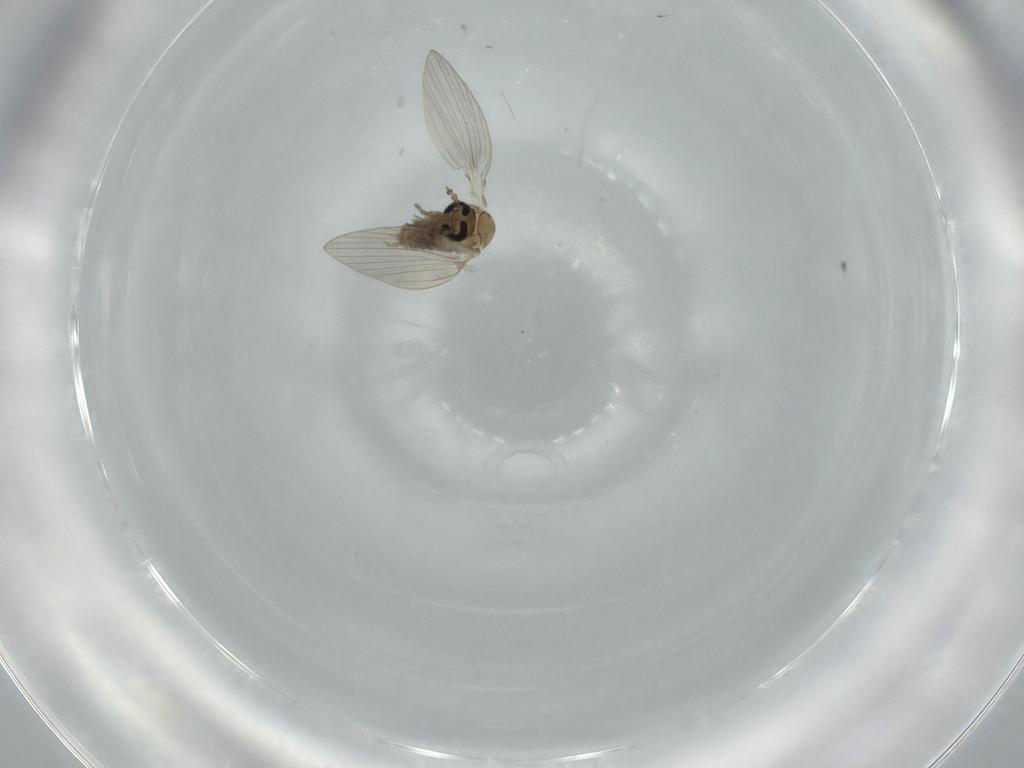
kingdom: Animalia
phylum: Arthropoda
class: Insecta
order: Diptera
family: Psychodidae
